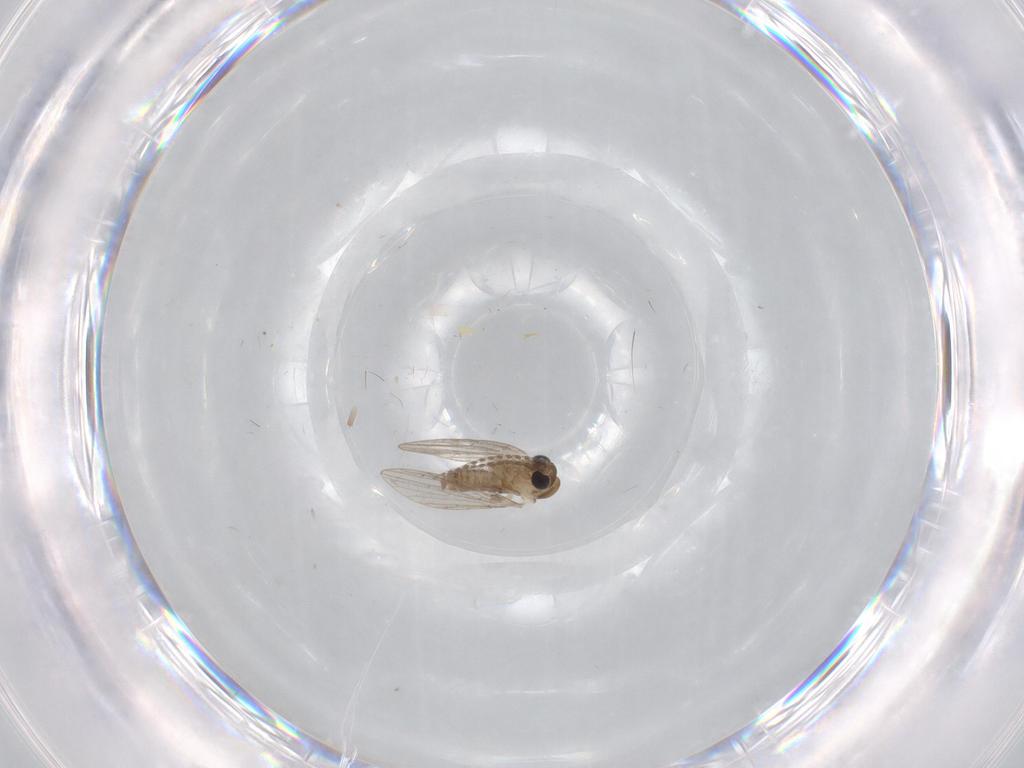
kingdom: Animalia
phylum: Arthropoda
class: Insecta
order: Diptera
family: Psychodidae
